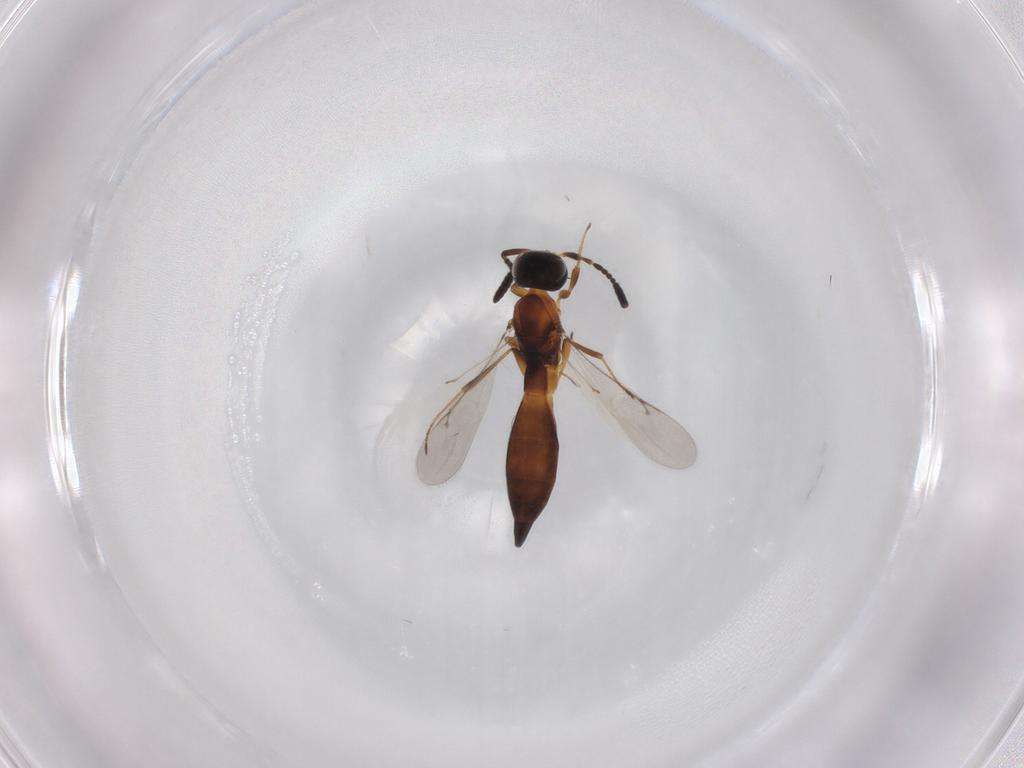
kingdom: Animalia
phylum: Arthropoda
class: Insecta
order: Hymenoptera
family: Scelionidae
